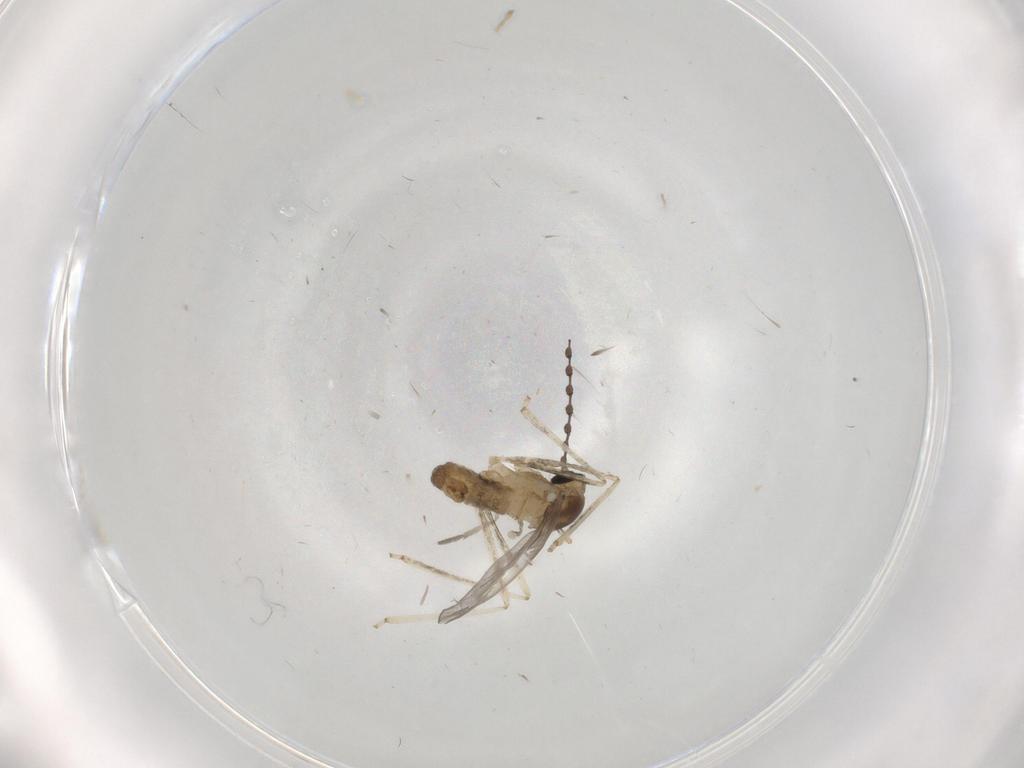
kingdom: Animalia
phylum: Arthropoda
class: Insecta
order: Diptera
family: Cecidomyiidae
